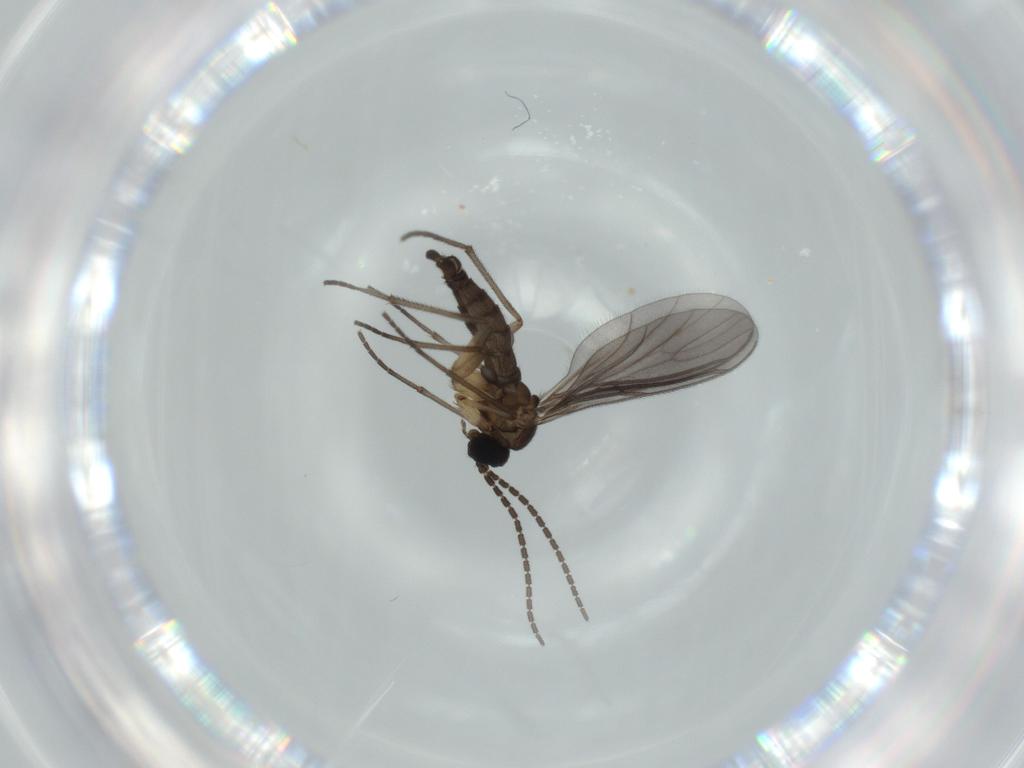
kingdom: Animalia
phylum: Arthropoda
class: Insecta
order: Diptera
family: Sciaridae
